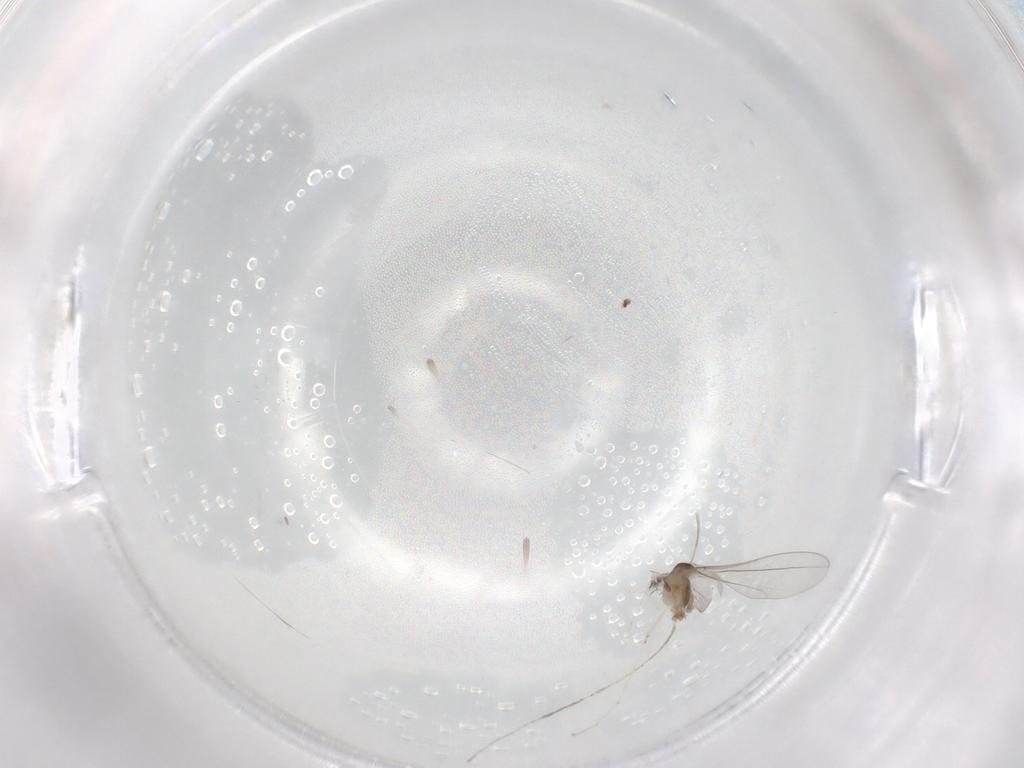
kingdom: Animalia
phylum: Arthropoda
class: Insecta
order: Diptera
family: Cecidomyiidae
